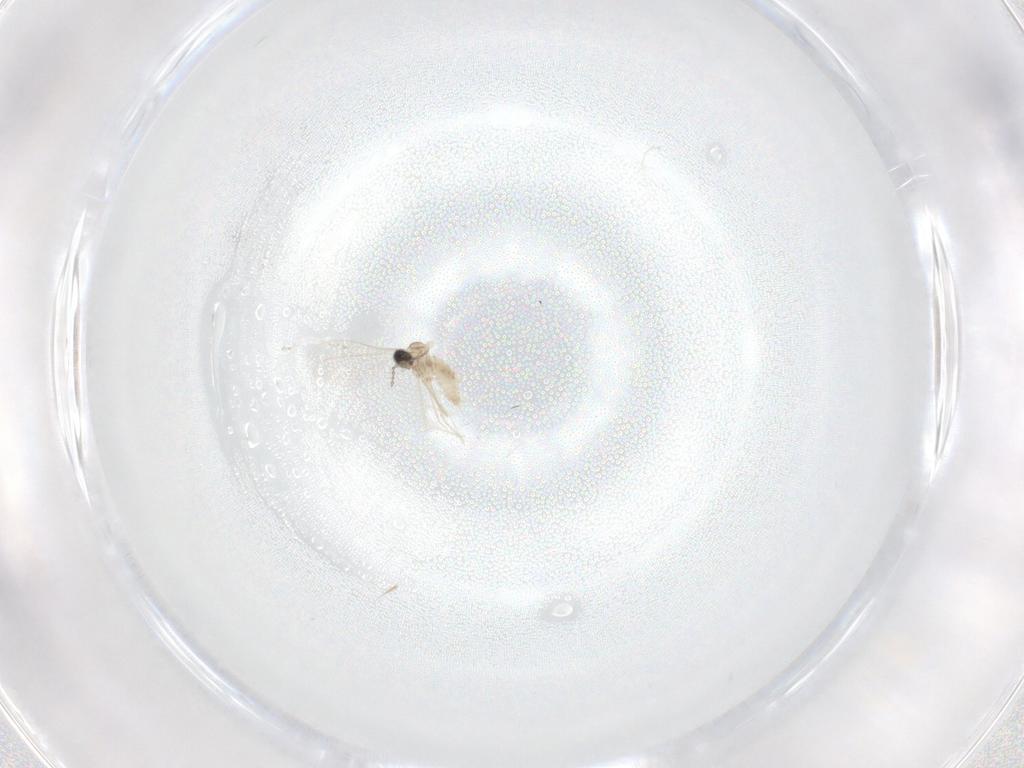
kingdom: Animalia
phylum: Arthropoda
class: Insecta
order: Diptera
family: Cecidomyiidae
